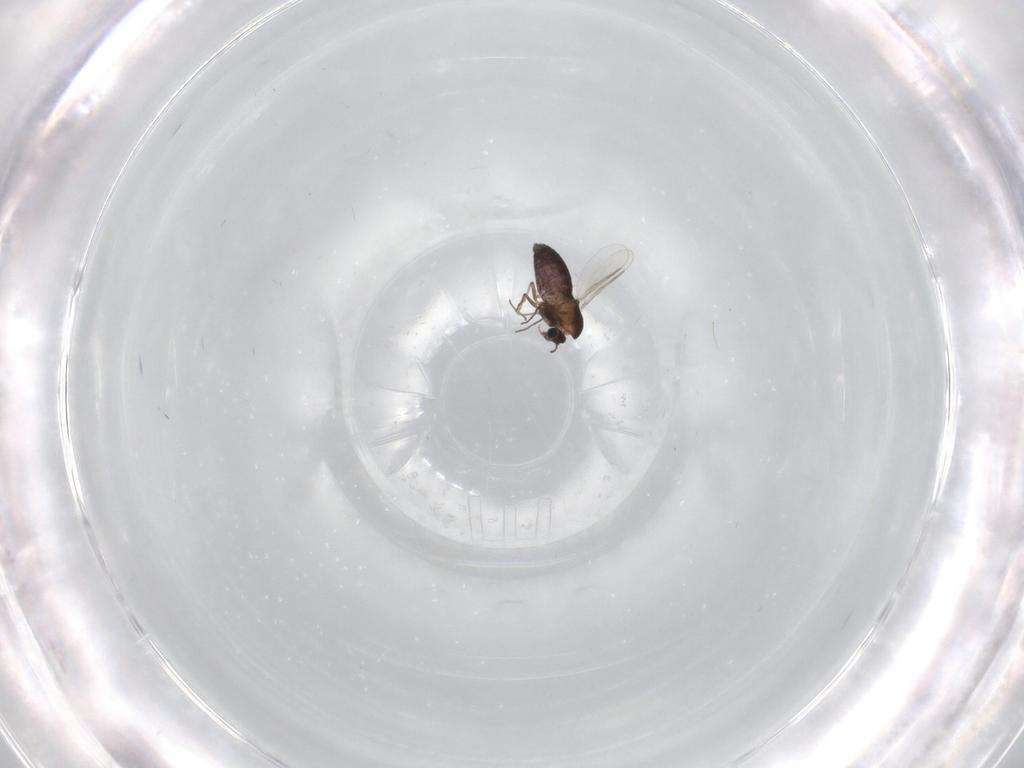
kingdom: Animalia
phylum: Arthropoda
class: Insecta
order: Diptera
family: Chironomidae
